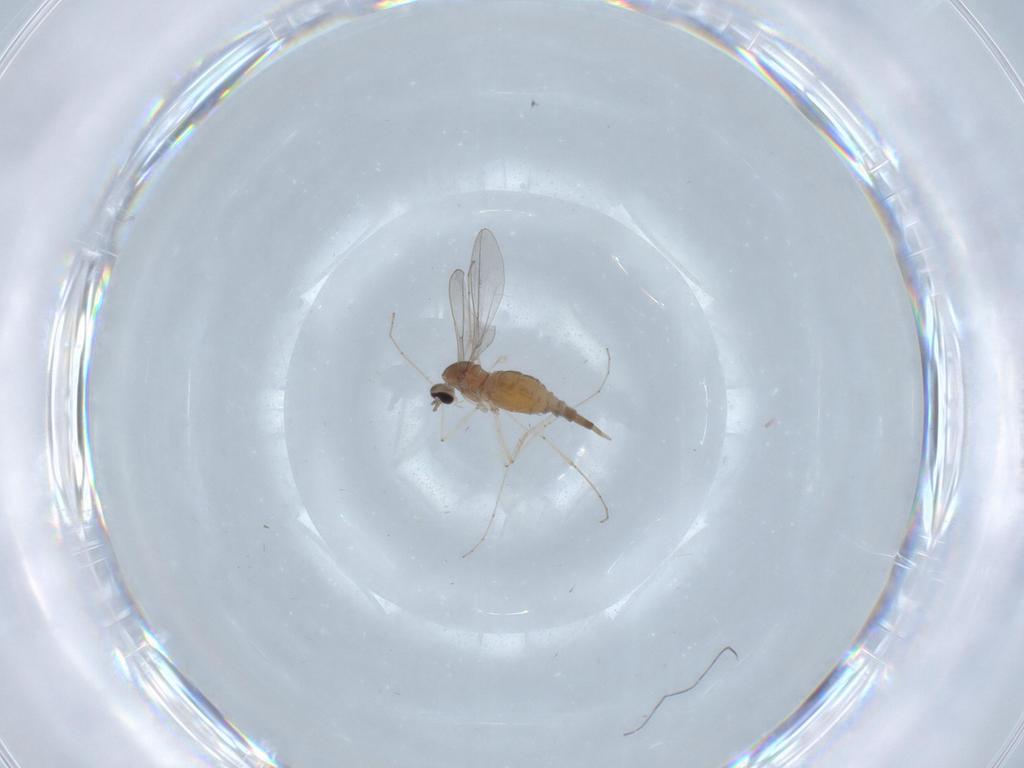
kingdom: Animalia
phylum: Arthropoda
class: Insecta
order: Diptera
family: Cecidomyiidae
